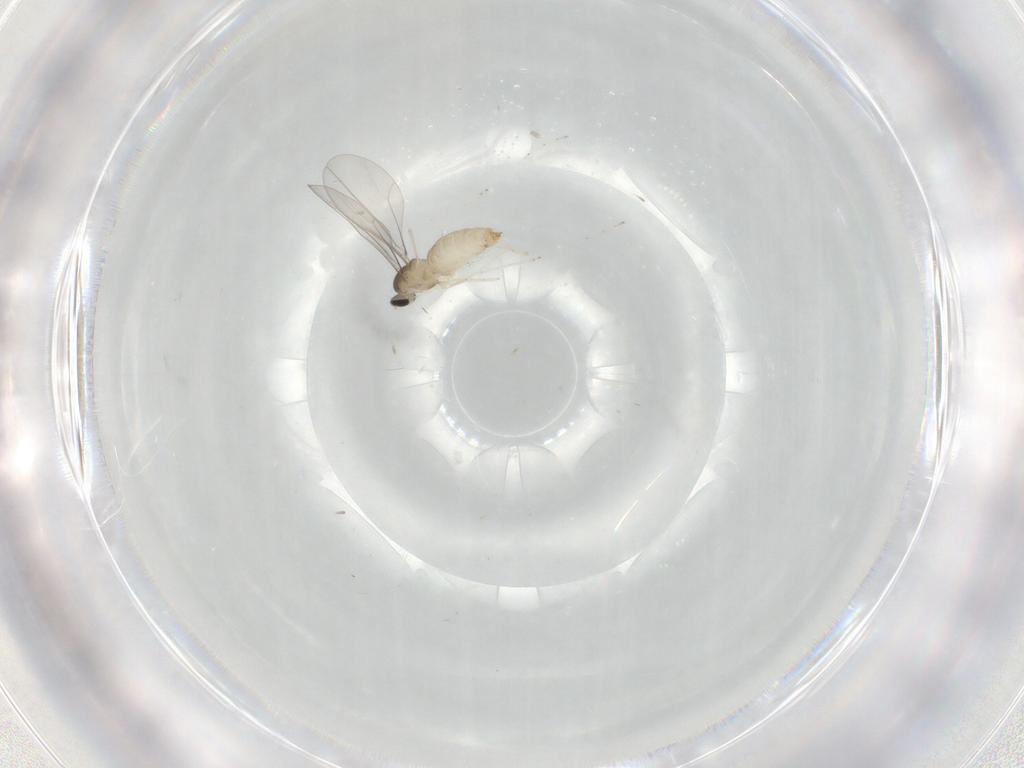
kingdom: Animalia
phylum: Arthropoda
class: Insecta
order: Diptera
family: Cecidomyiidae
